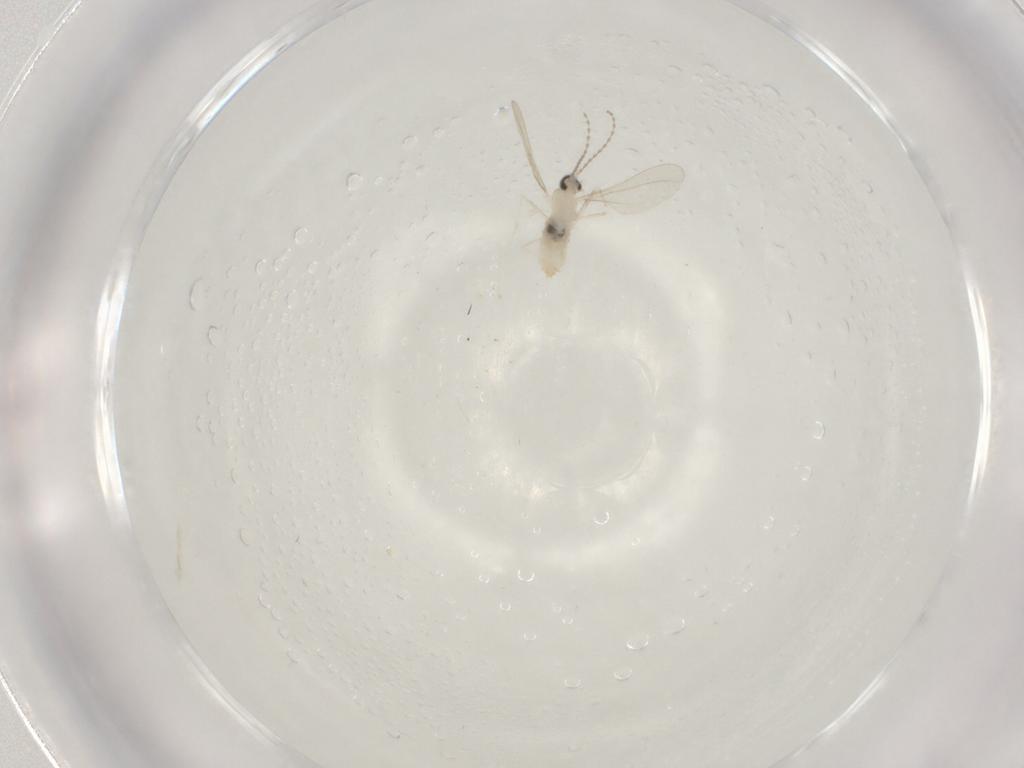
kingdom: Animalia
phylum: Arthropoda
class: Insecta
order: Diptera
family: Cecidomyiidae
